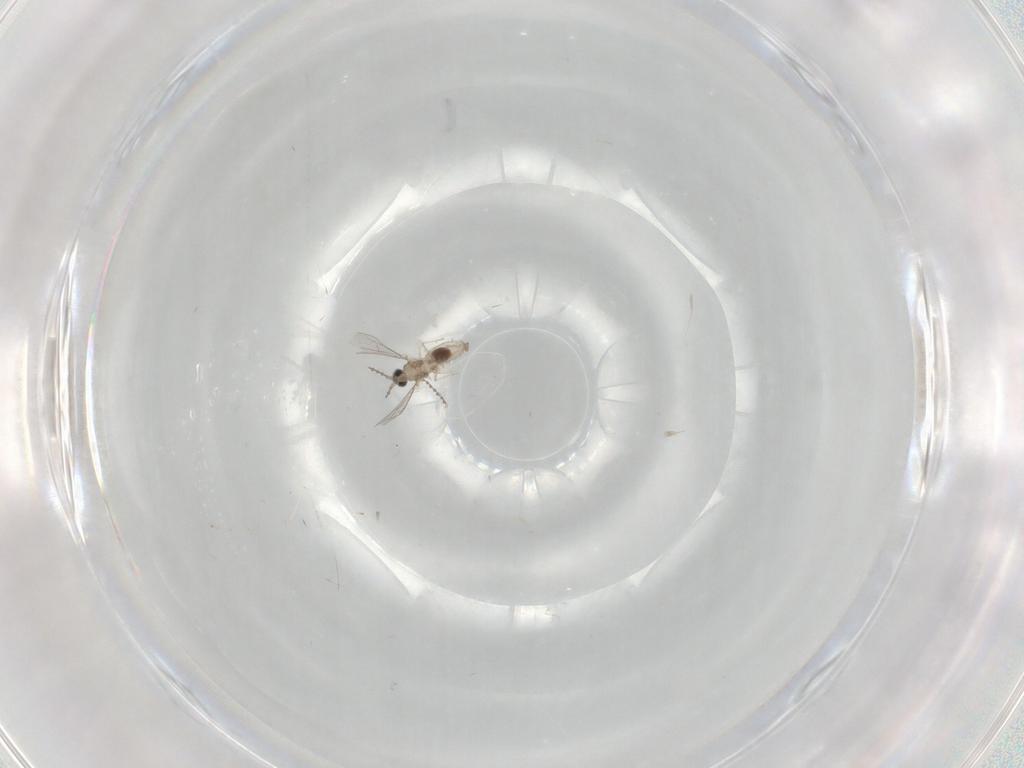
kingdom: Animalia
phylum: Arthropoda
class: Insecta
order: Diptera
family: Cecidomyiidae
